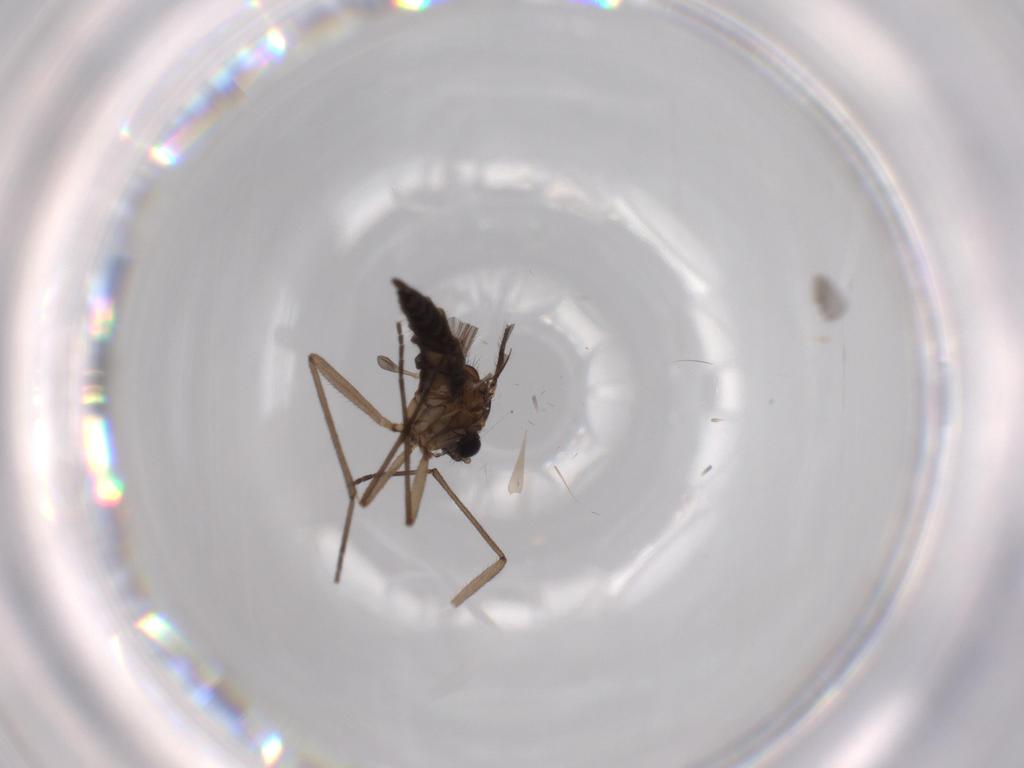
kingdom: Animalia
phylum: Arthropoda
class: Insecta
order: Diptera
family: Sciaridae
